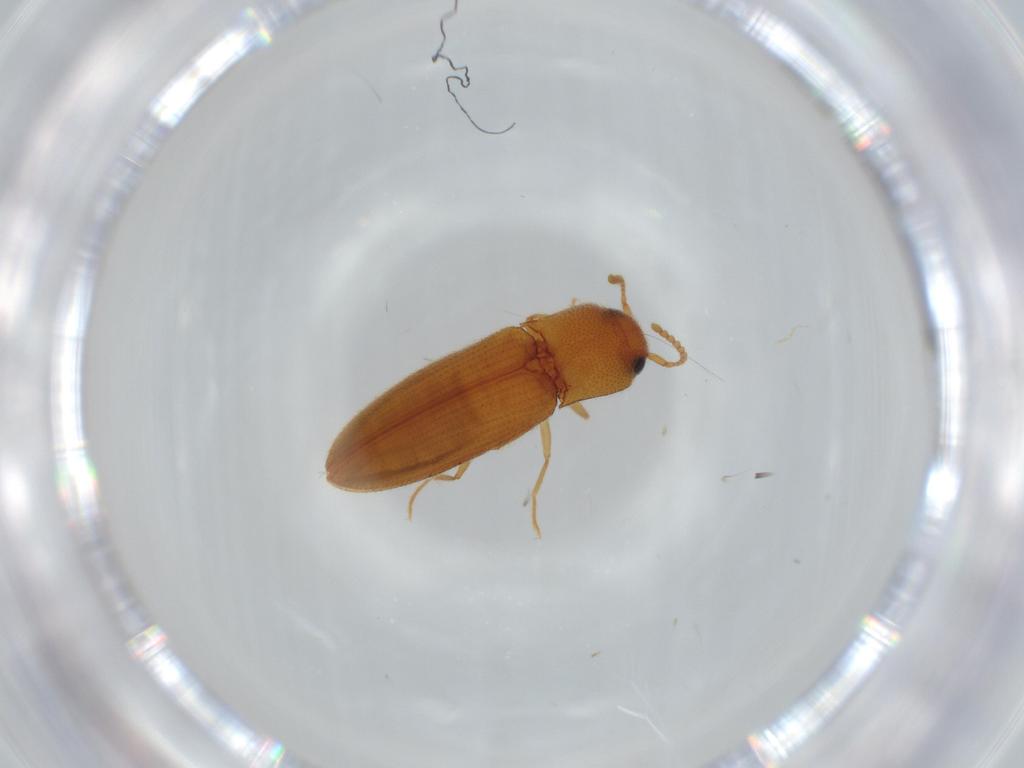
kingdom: Animalia
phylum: Arthropoda
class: Insecta
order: Coleoptera
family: Elateridae
